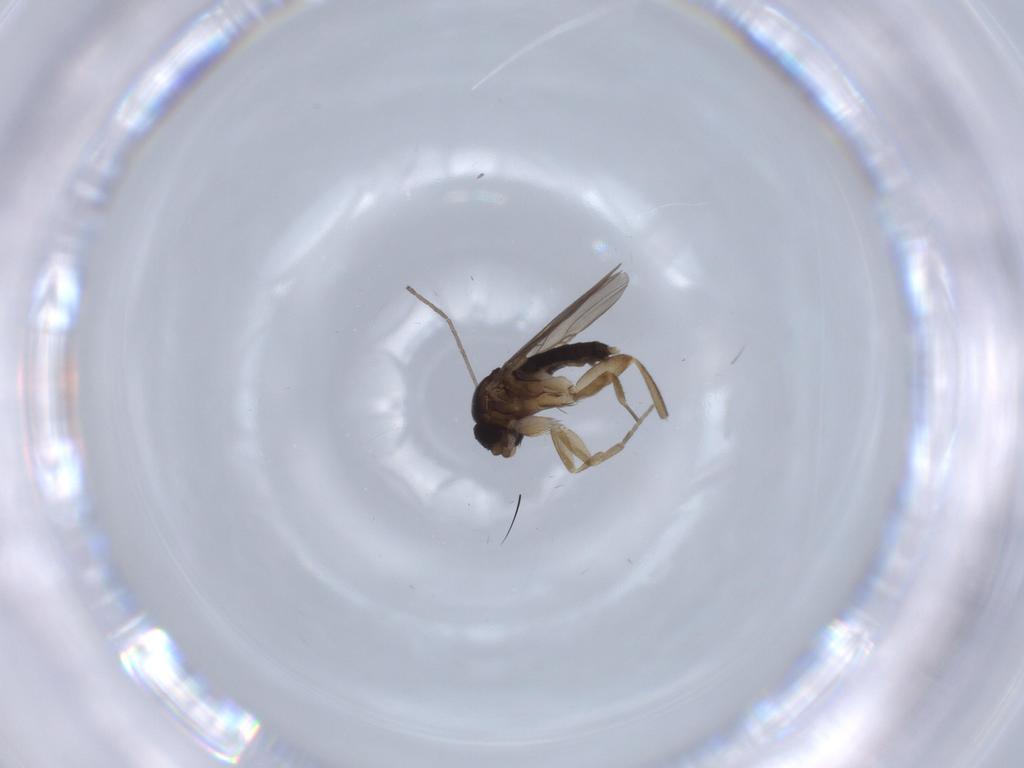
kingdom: Animalia
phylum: Arthropoda
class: Insecta
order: Diptera
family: Phoridae
